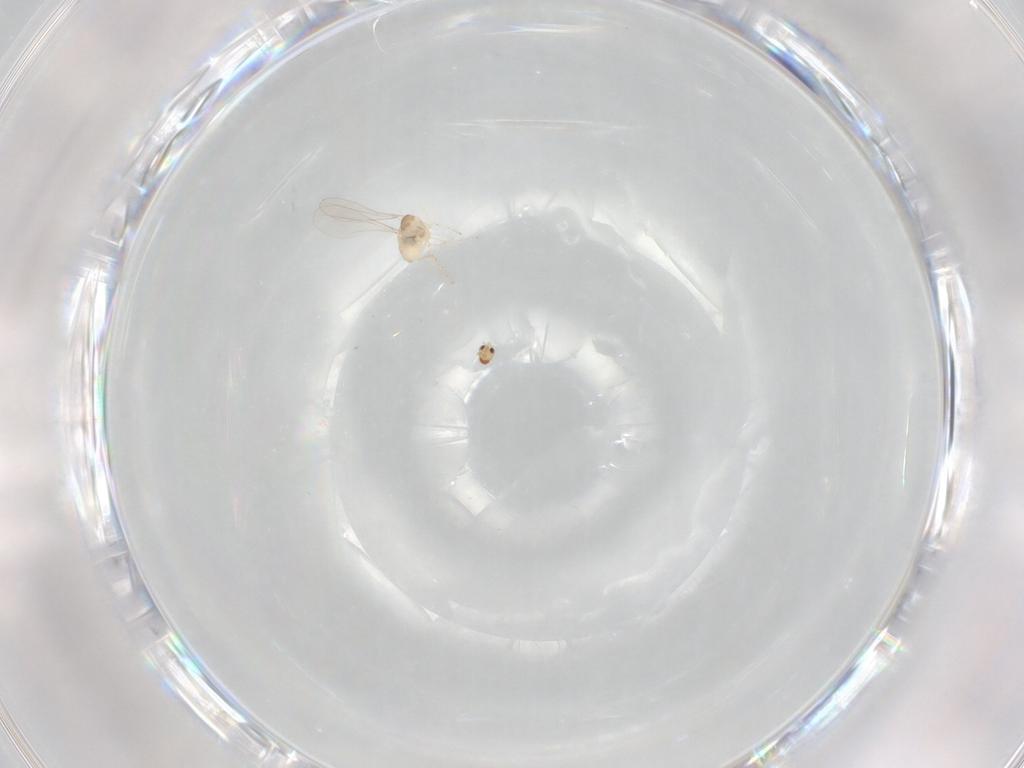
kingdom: Animalia
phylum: Arthropoda
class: Insecta
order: Diptera
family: Cecidomyiidae
